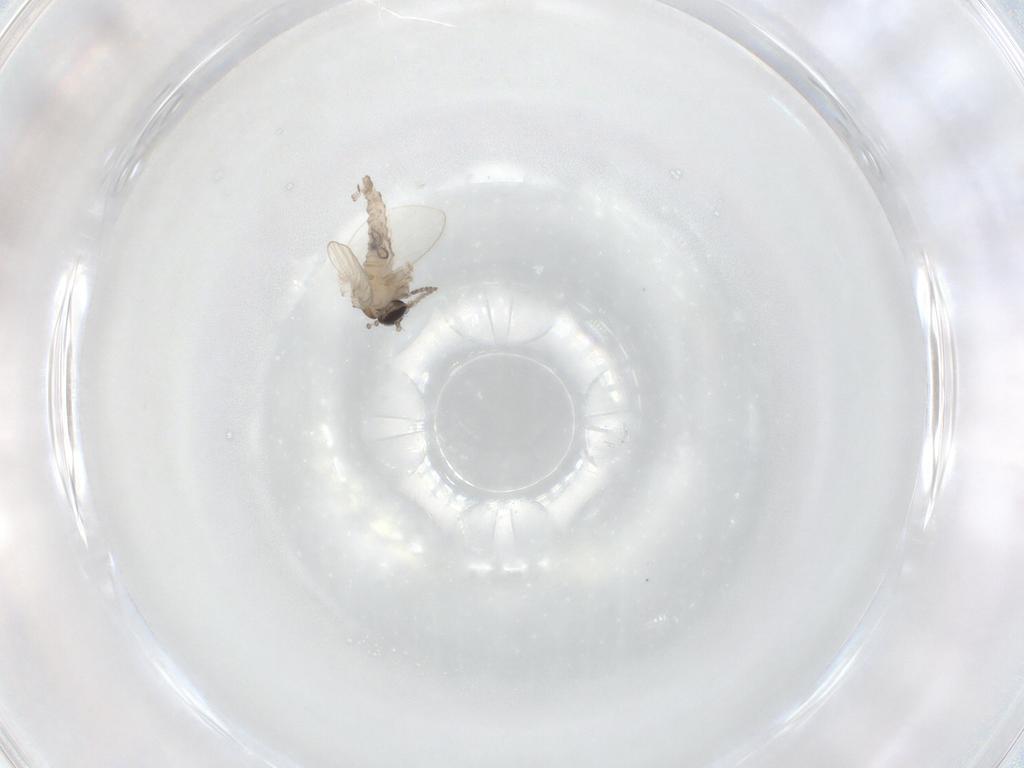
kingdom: Animalia
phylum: Arthropoda
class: Insecta
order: Diptera
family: Psychodidae
